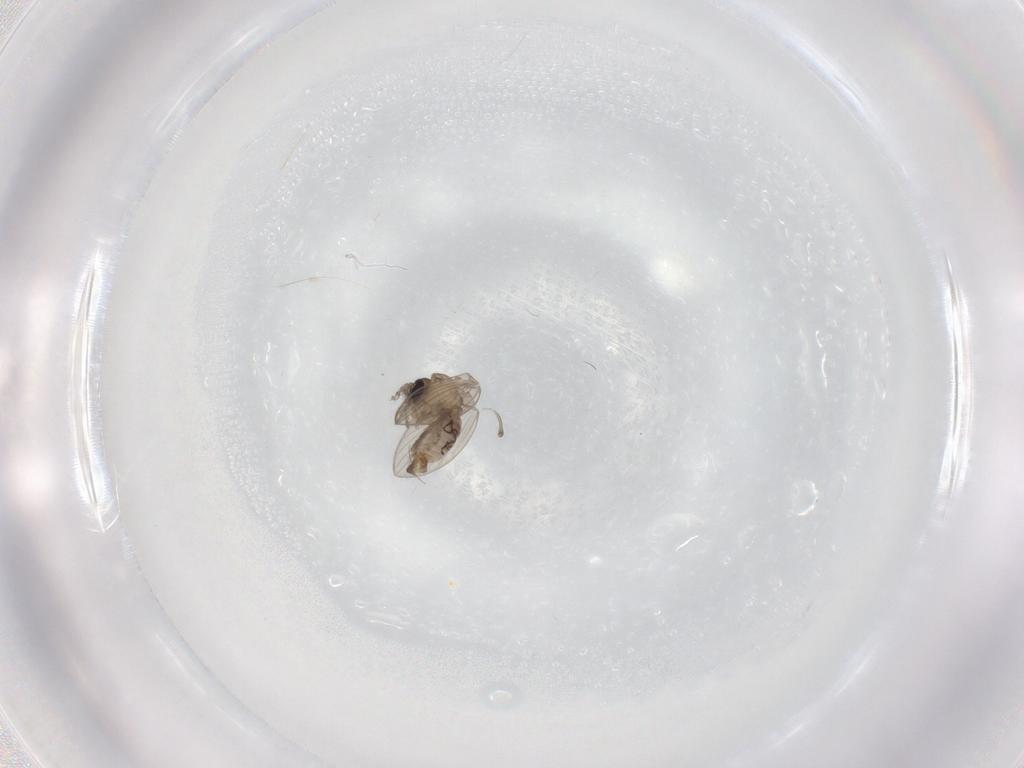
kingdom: Animalia
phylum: Arthropoda
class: Insecta
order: Diptera
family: Psychodidae
